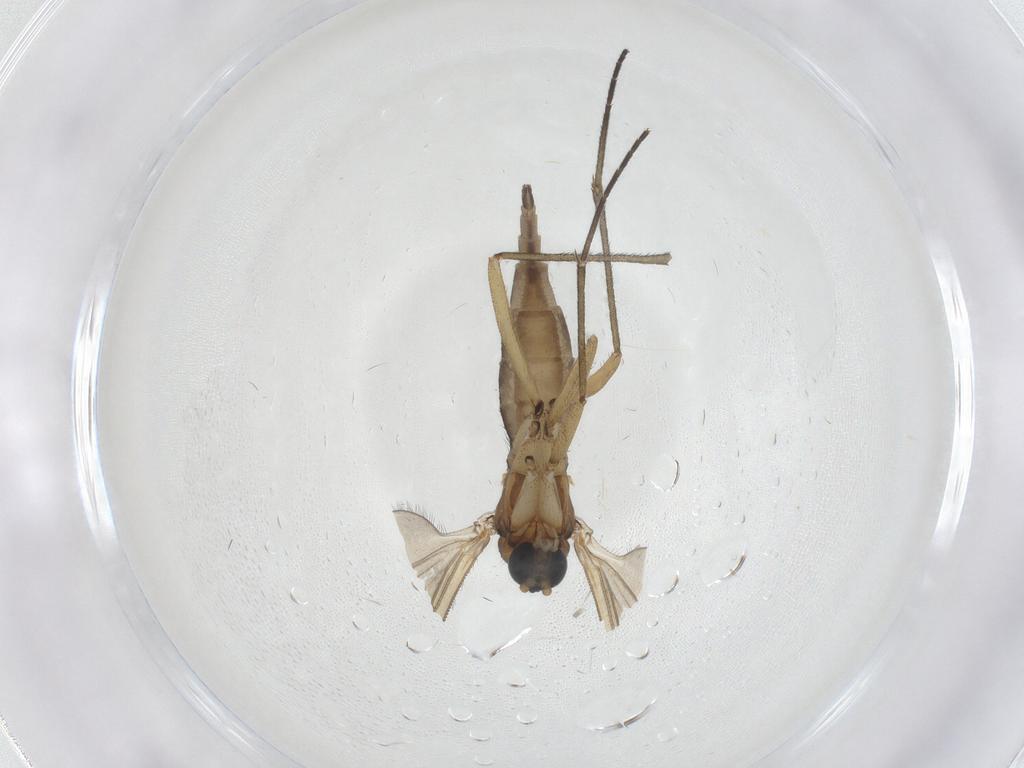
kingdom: Animalia
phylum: Arthropoda
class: Insecta
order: Diptera
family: Sciaridae
